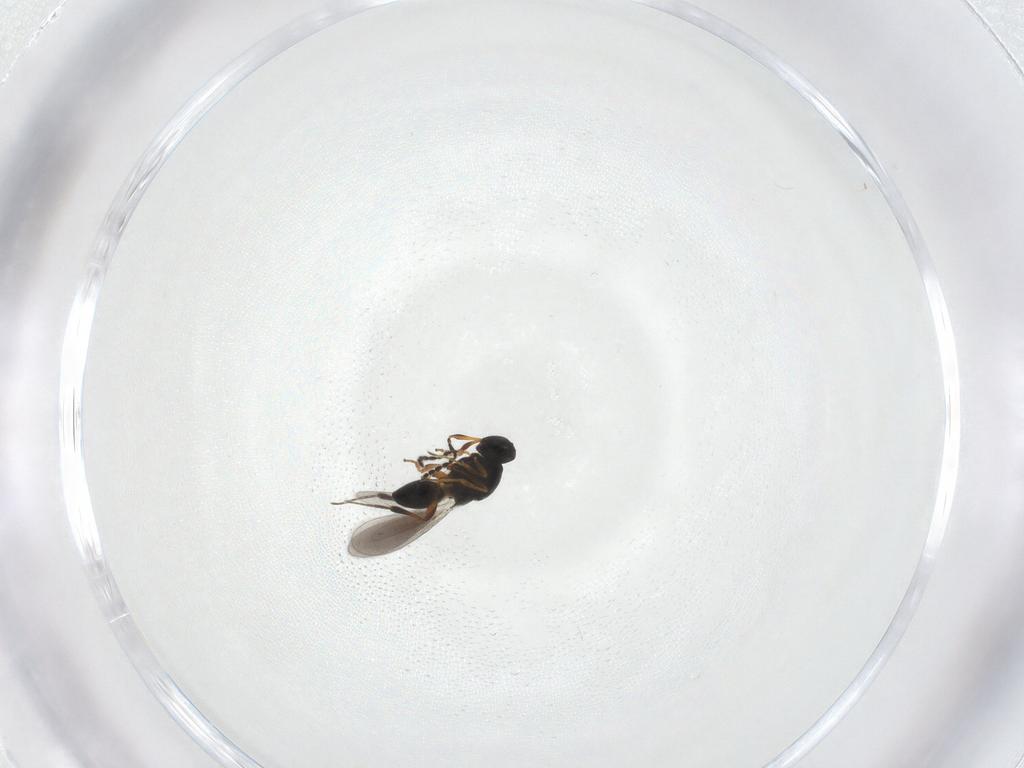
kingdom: Animalia
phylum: Arthropoda
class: Insecta
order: Hymenoptera
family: Platygastridae
